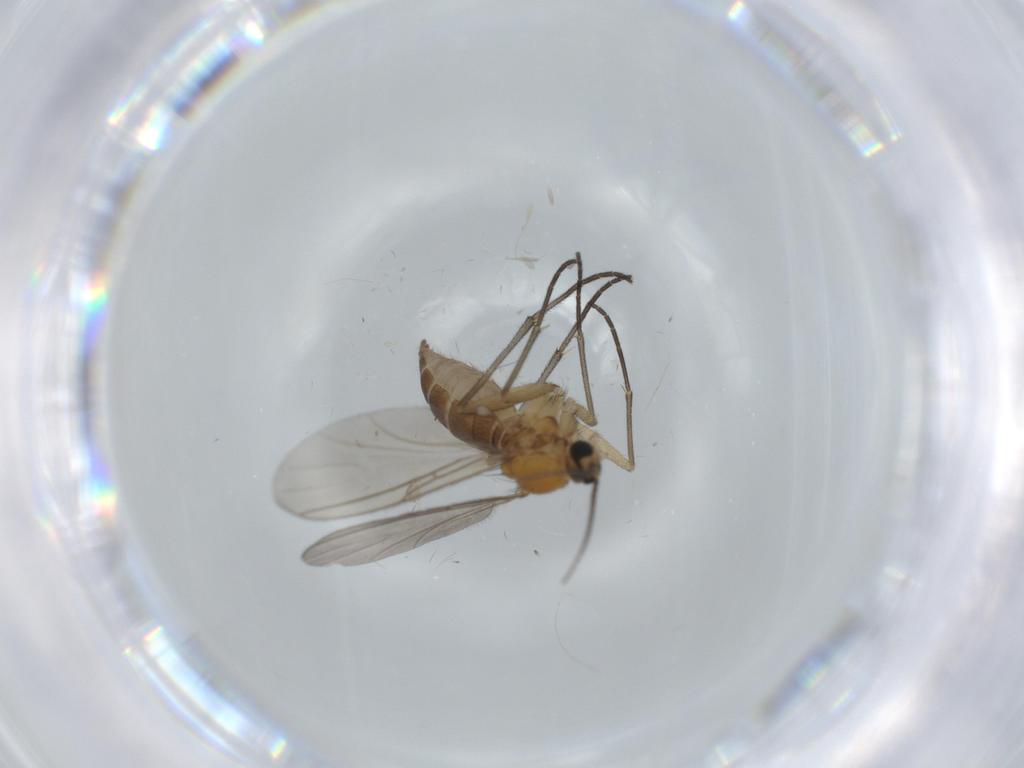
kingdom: Animalia
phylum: Arthropoda
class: Insecta
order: Diptera
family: Sciaridae
